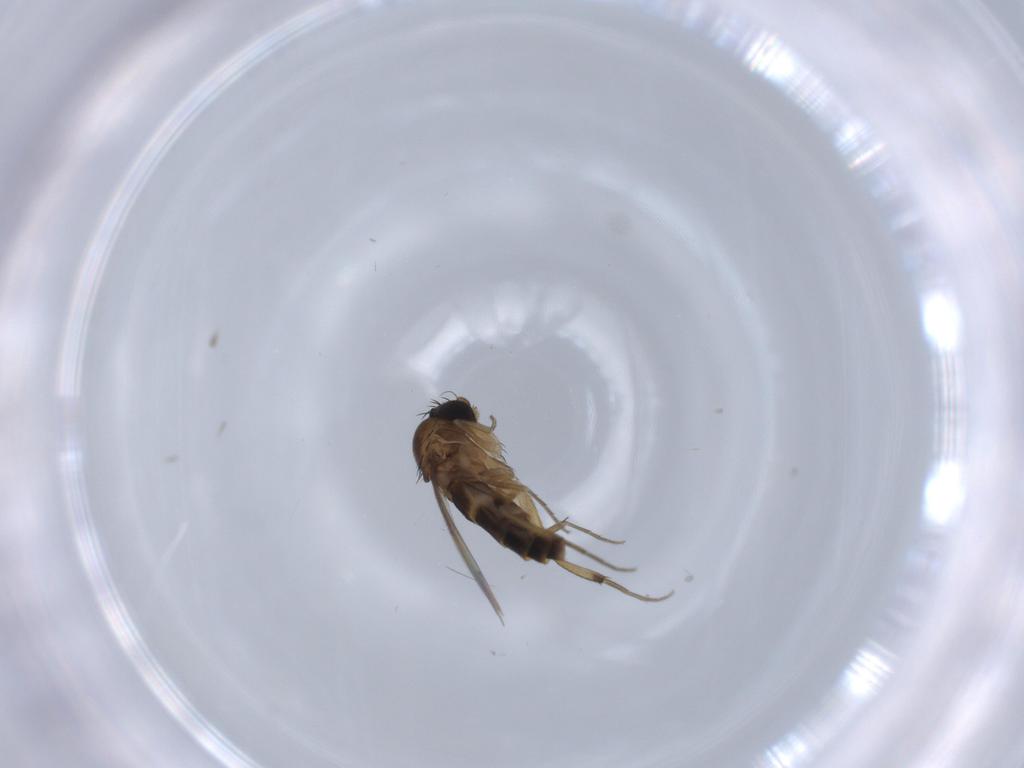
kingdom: Animalia
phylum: Arthropoda
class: Insecta
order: Diptera
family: Phoridae
